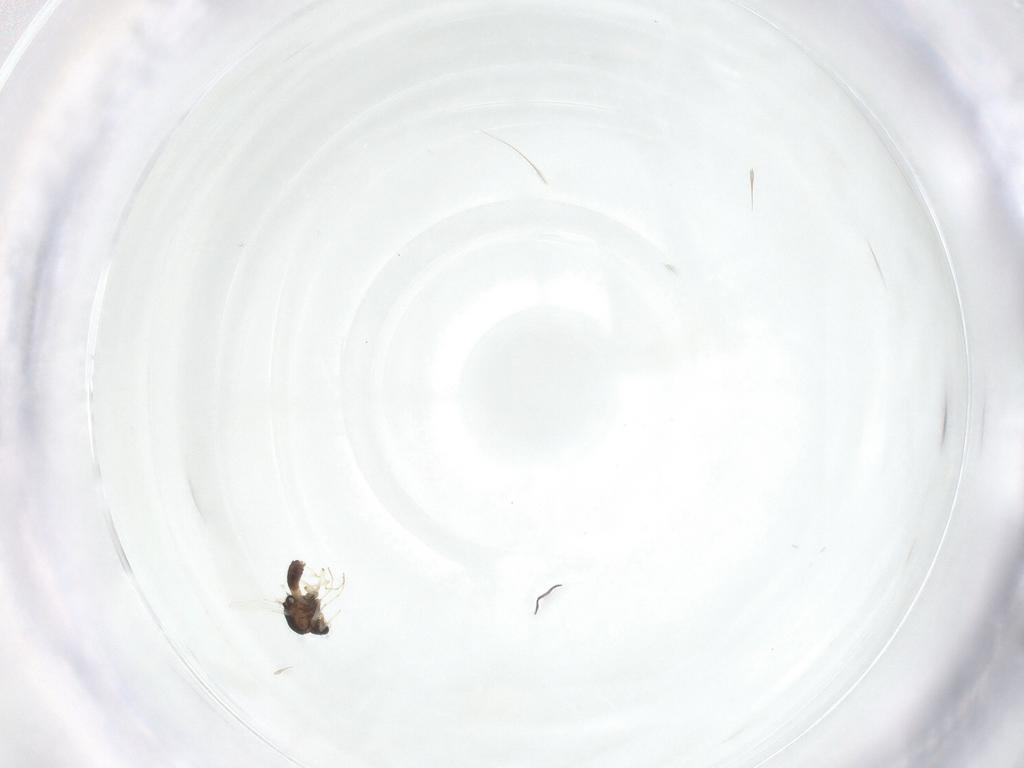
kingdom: Animalia
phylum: Arthropoda
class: Insecta
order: Diptera
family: Chironomidae
